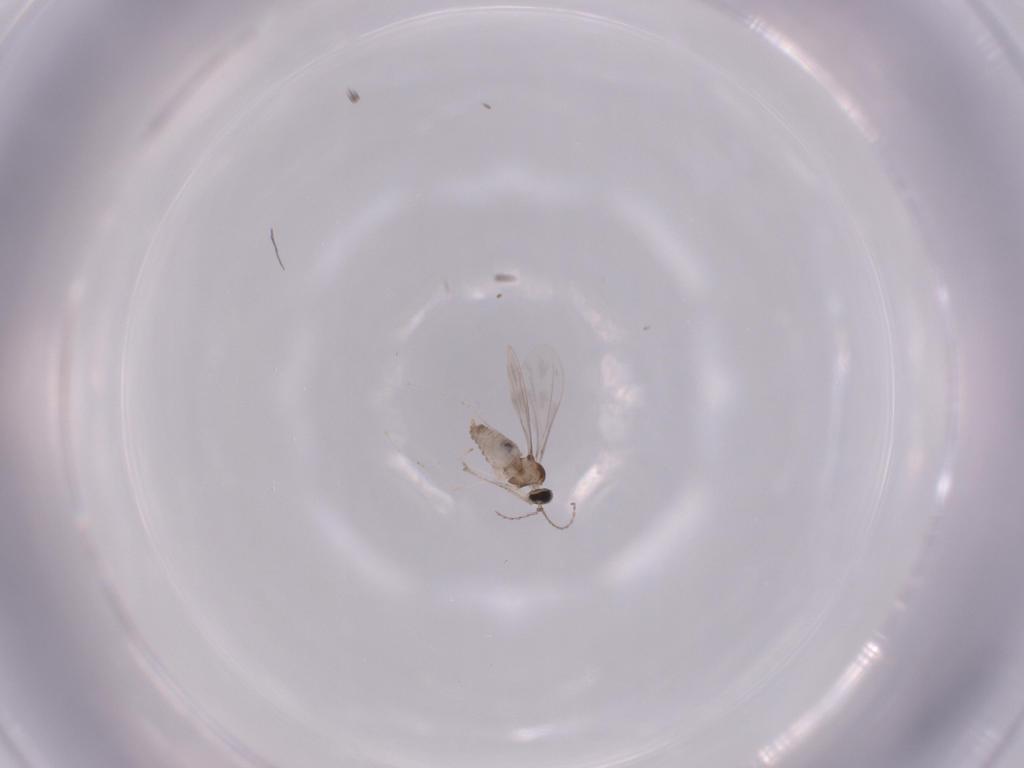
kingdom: Animalia
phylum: Arthropoda
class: Insecta
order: Diptera
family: Cecidomyiidae
